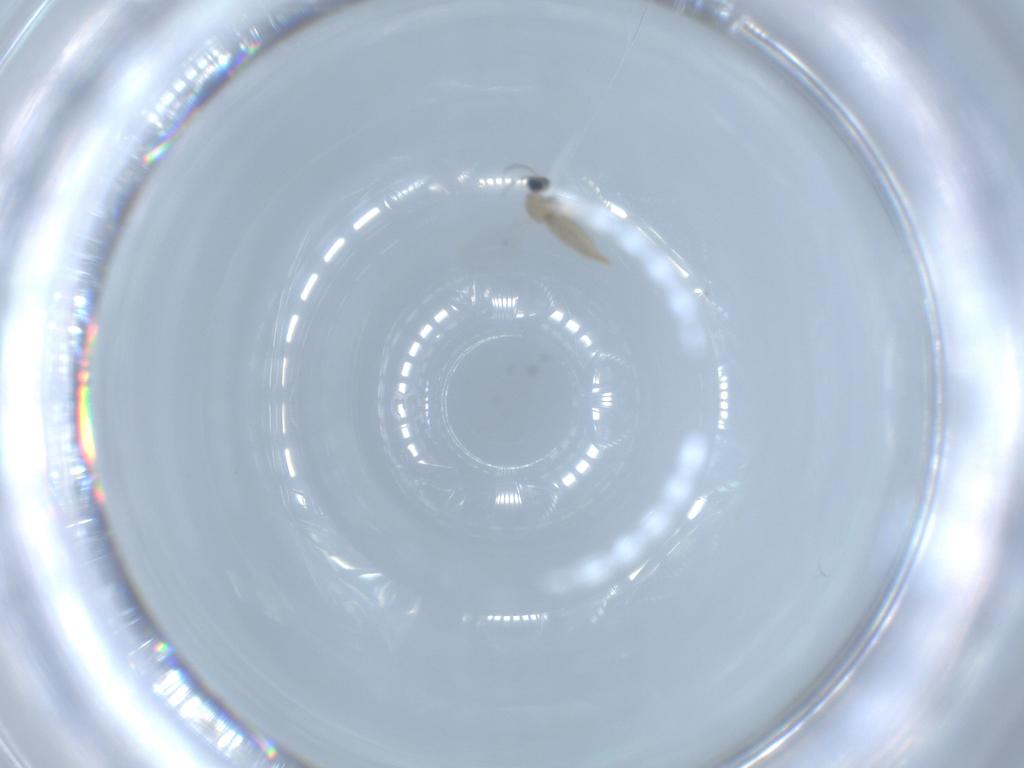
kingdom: Animalia
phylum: Arthropoda
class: Insecta
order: Diptera
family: Cecidomyiidae
